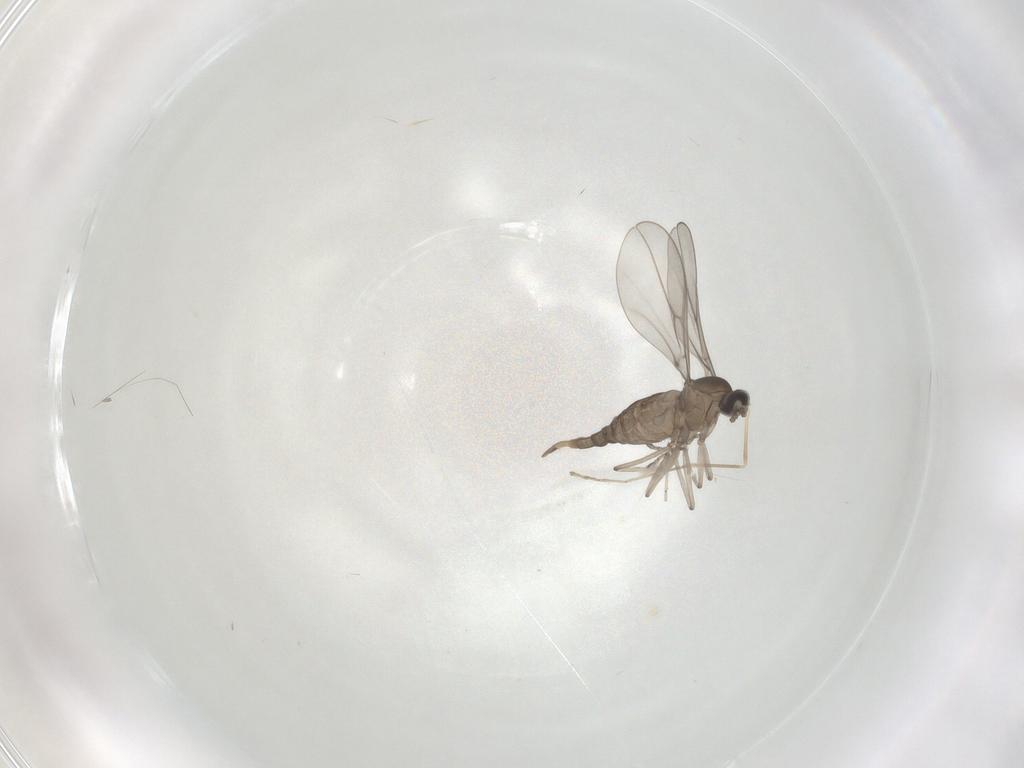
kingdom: Animalia
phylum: Arthropoda
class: Insecta
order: Diptera
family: Cecidomyiidae
